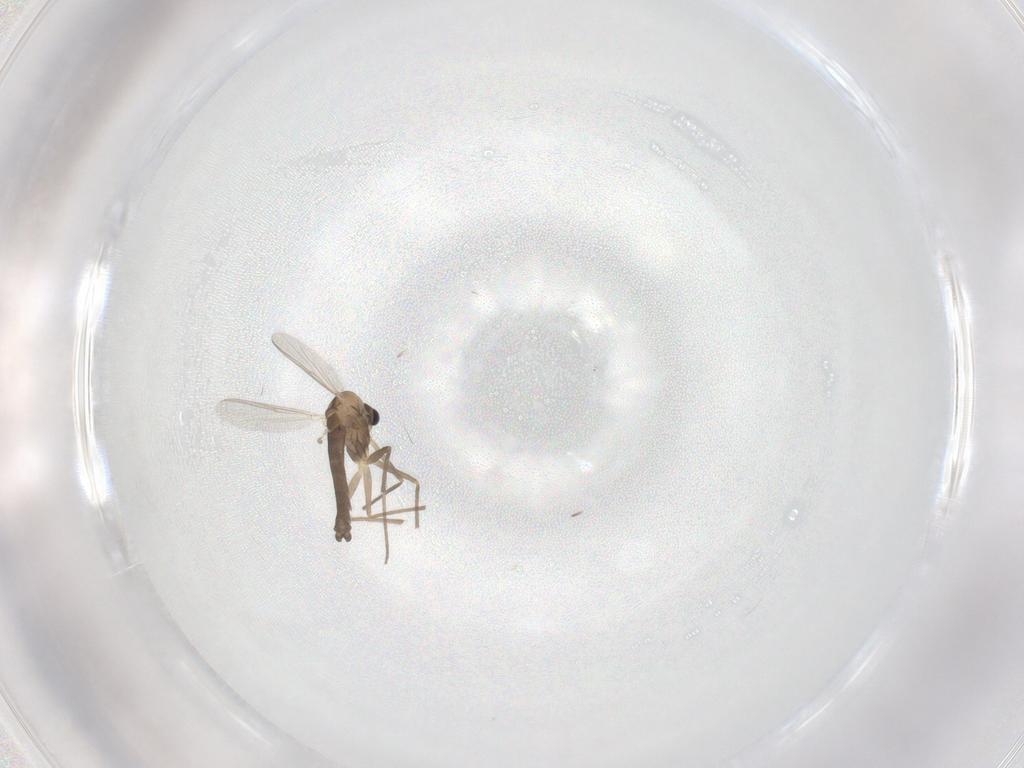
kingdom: Animalia
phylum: Arthropoda
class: Insecta
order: Diptera
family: Chironomidae
